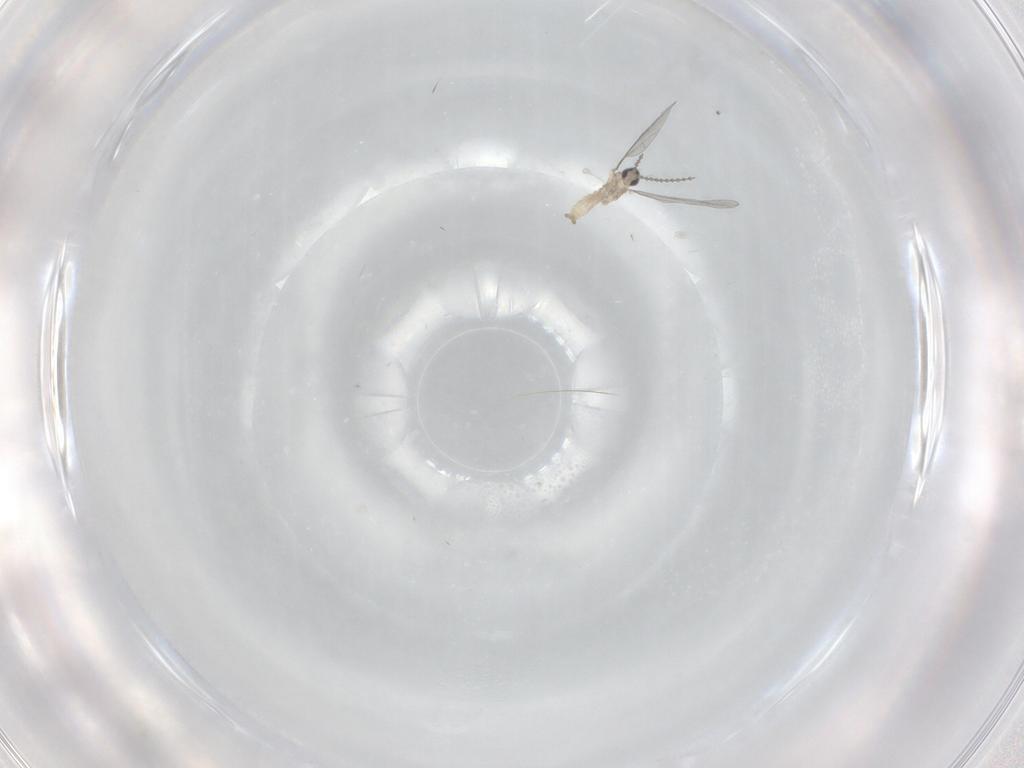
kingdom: Animalia
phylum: Arthropoda
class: Insecta
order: Diptera
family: Cecidomyiidae
